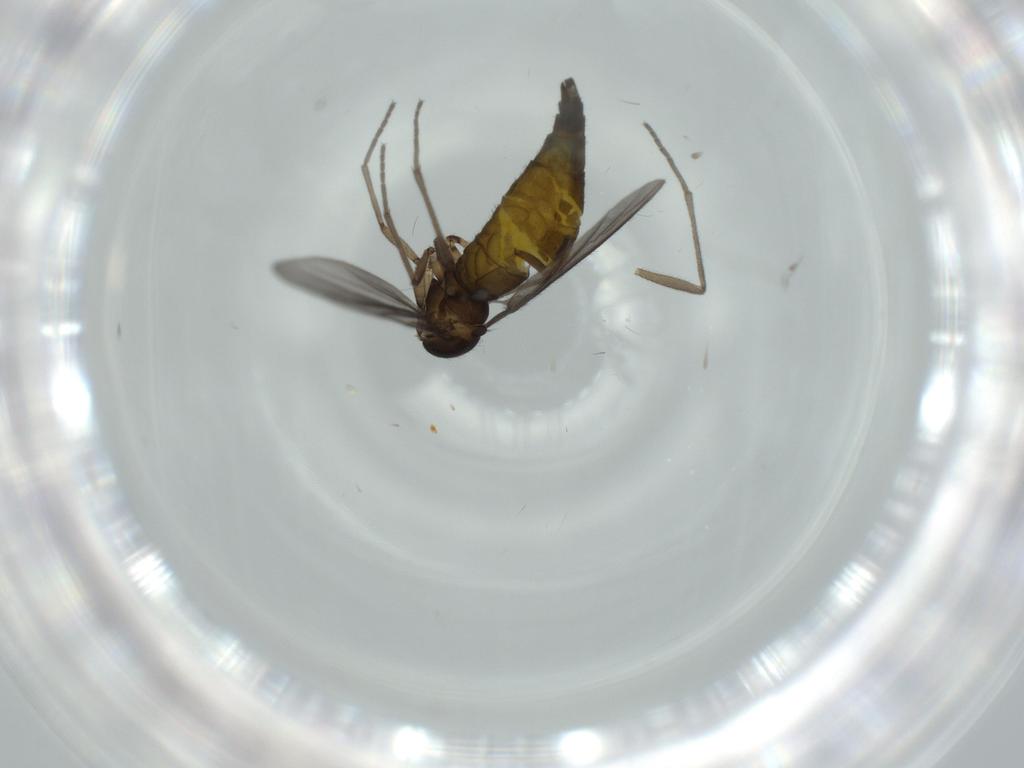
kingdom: Animalia
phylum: Arthropoda
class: Insecta
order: Diptera
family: Sciaridae
